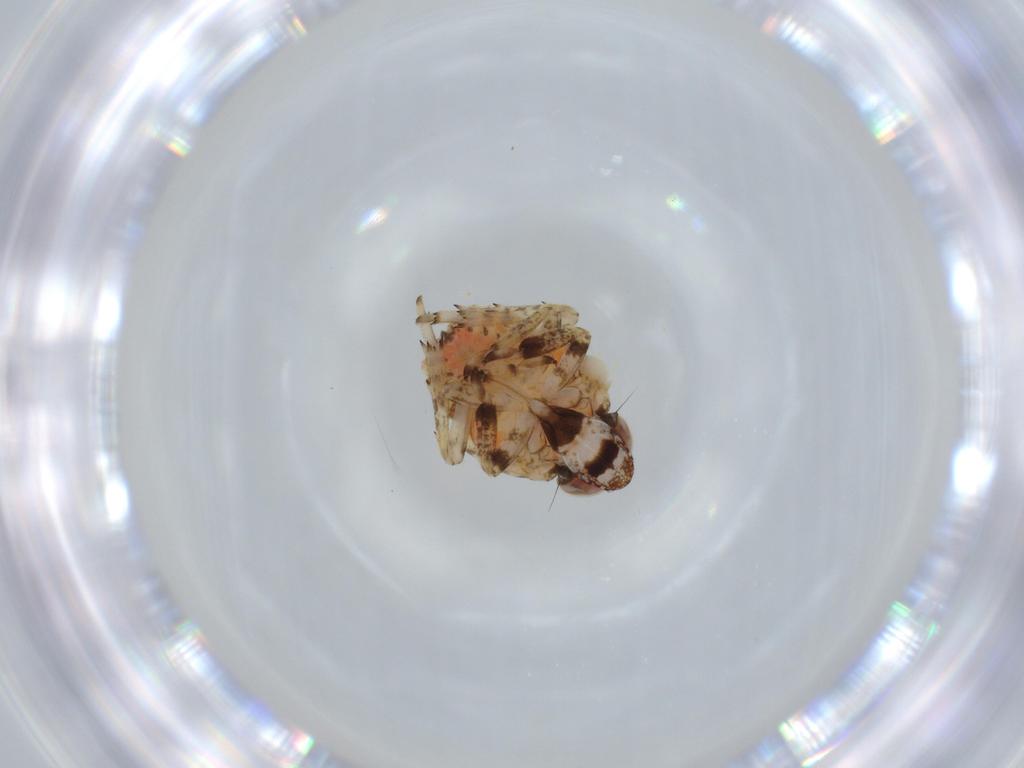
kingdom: Animalia
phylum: Arthropoda
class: Insecta
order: Hemiptera
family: Issidae
